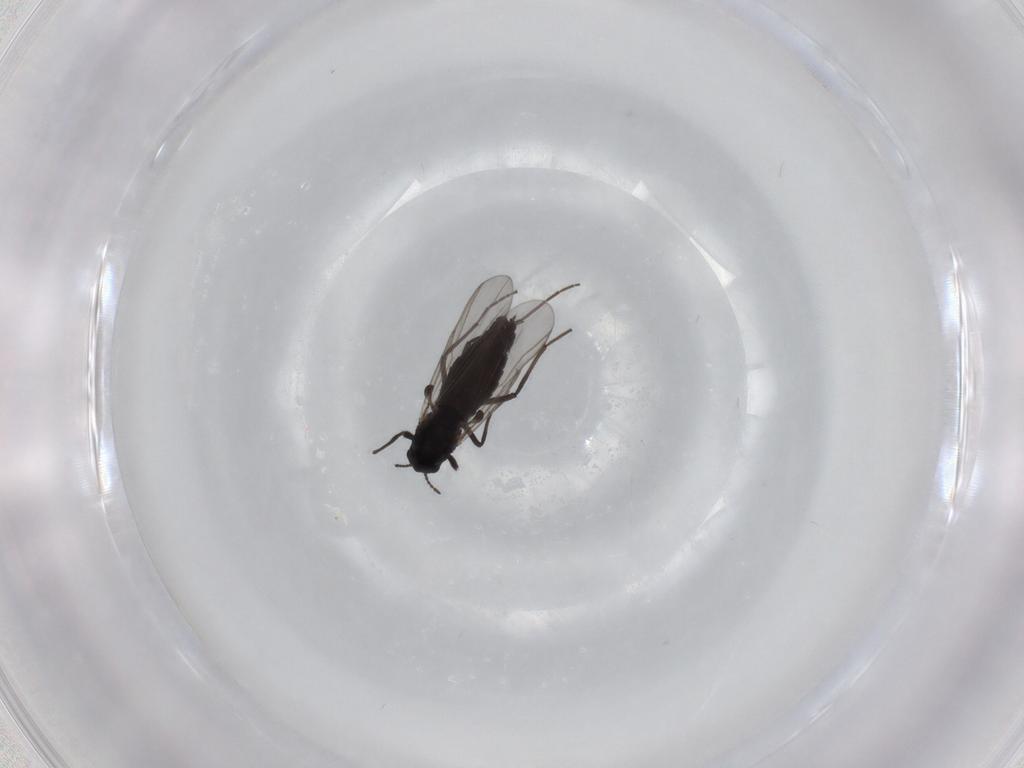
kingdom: Animalia
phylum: Arthropoda
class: Insecta
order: Diptera
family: Chironomidae
